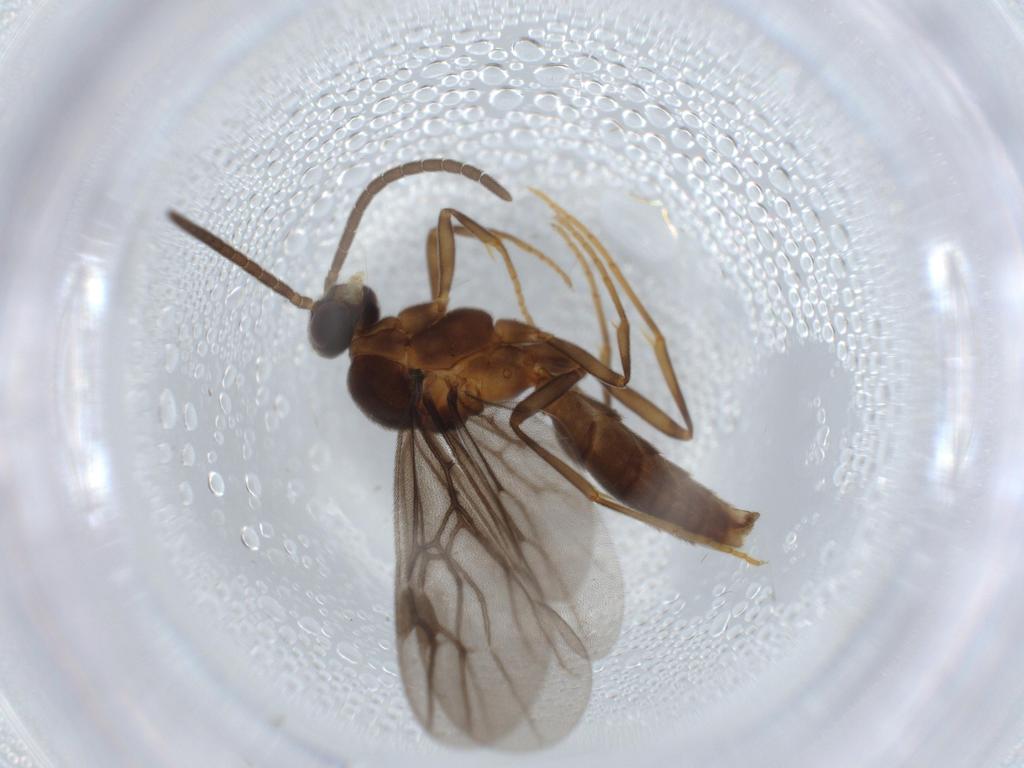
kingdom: Animalia
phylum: Arthropoda
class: Insecta
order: Hymenoptera
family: Formicidae
